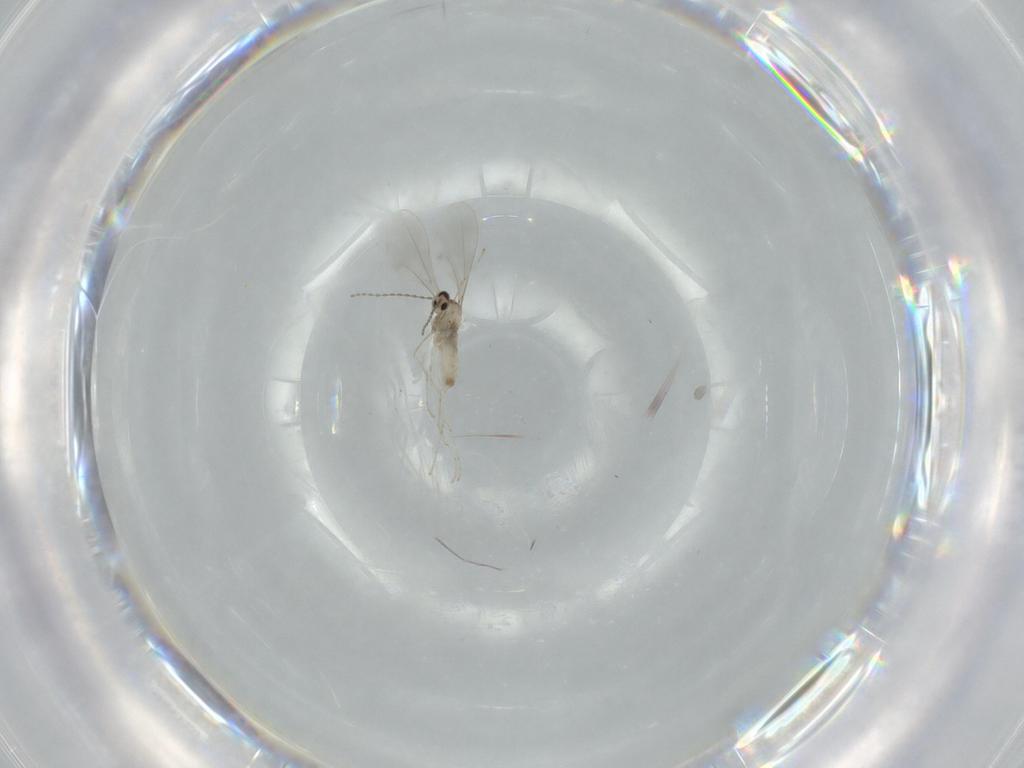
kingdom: Animalia
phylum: Arthropoda
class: Insecta
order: Diptera
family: Cecidomyiidae
